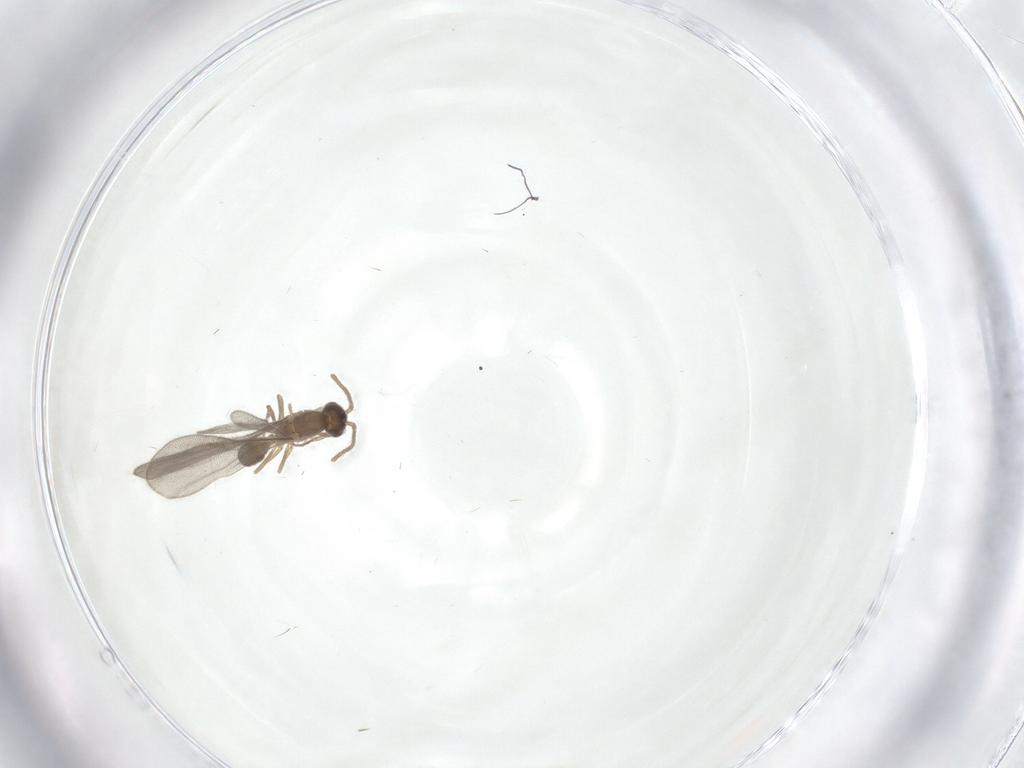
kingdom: Animalia
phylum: Arthropoda
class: Insecta
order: Hymenoptera
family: Formicidae
